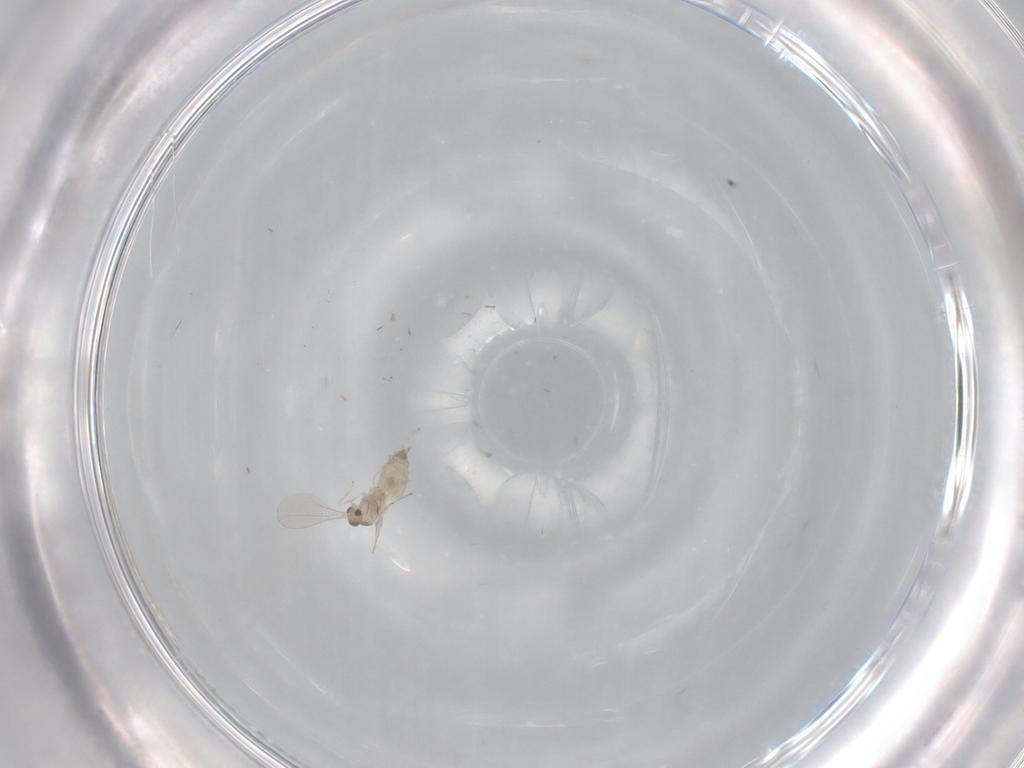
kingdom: Animalia
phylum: Arthropoda
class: Insecta
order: Diptera
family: Cecidomyiidae
